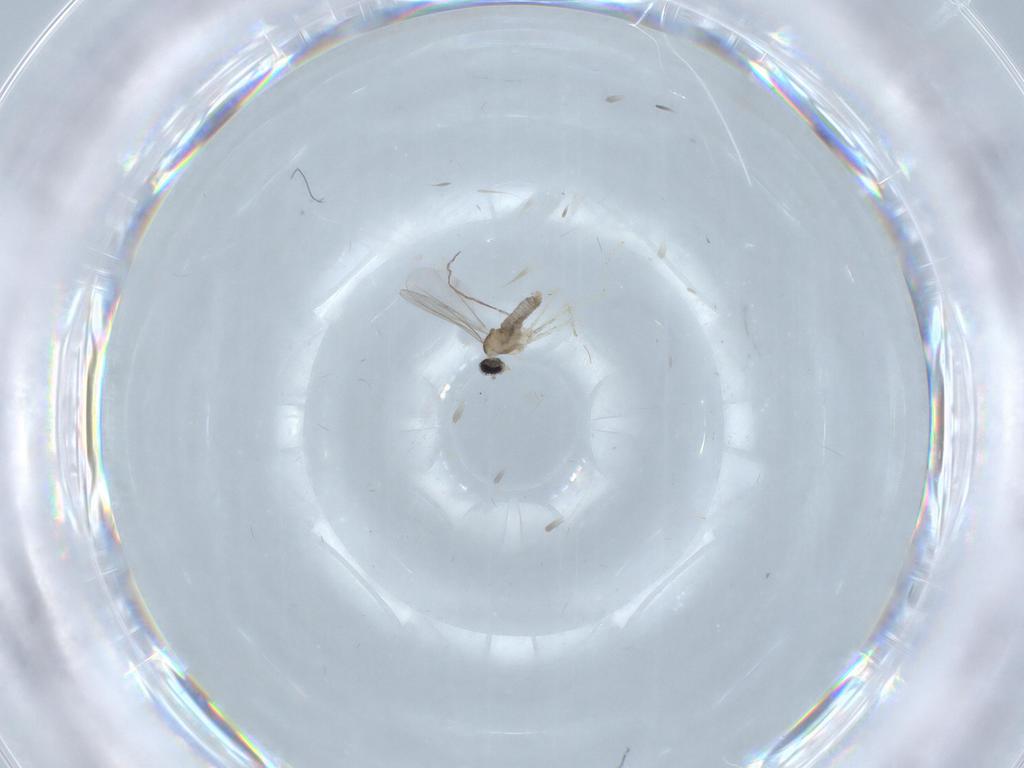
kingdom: Animalia
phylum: Arthropoda
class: Insecta
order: Diptera
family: Cecidomyiidae
